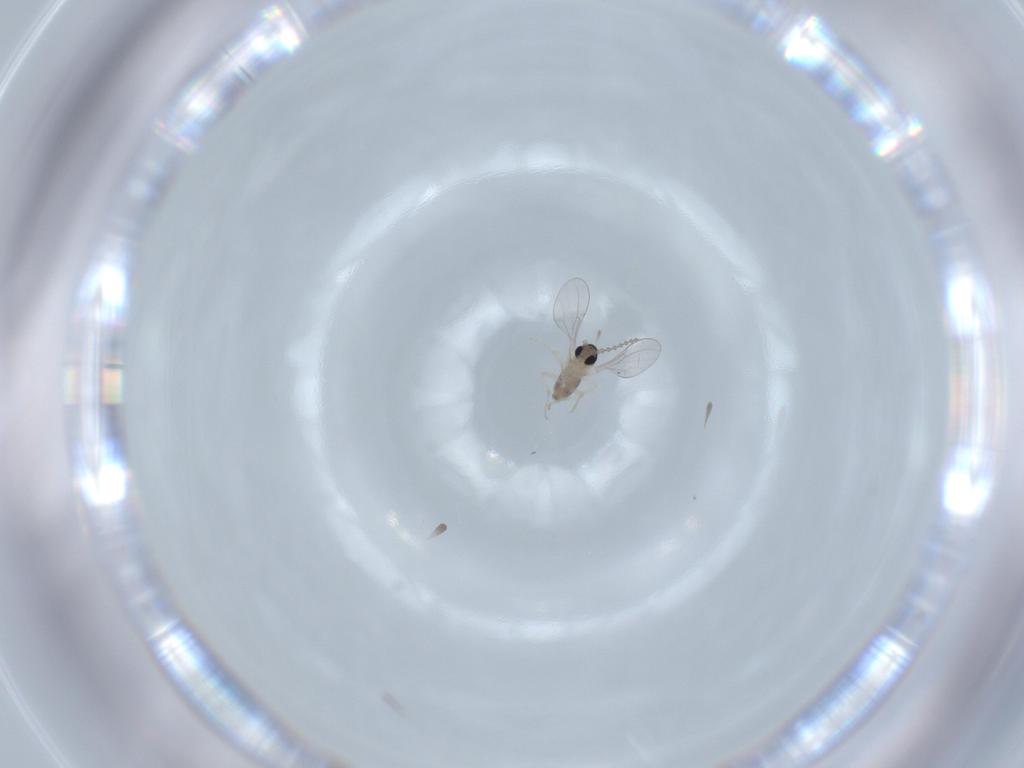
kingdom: Animalia
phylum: Arthropoda
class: Insecta
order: Diptera
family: Cecidomyiidae
